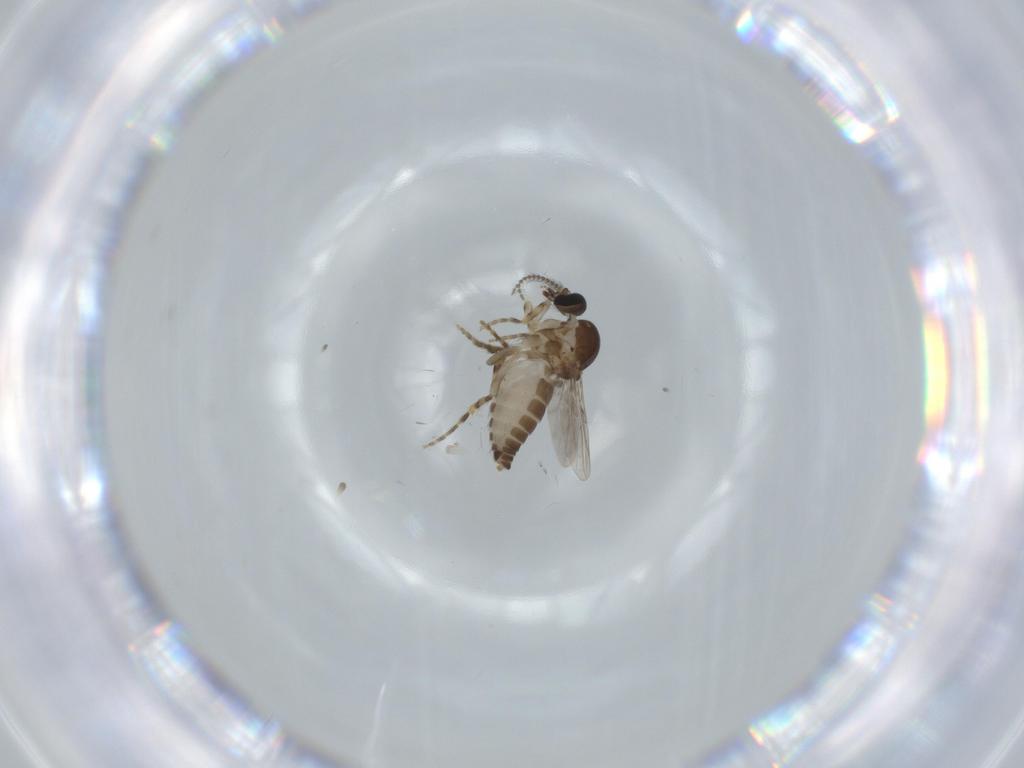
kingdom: Animalia
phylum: Arthropoda
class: Insecta
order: Diptera
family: Ceratopogonidae
